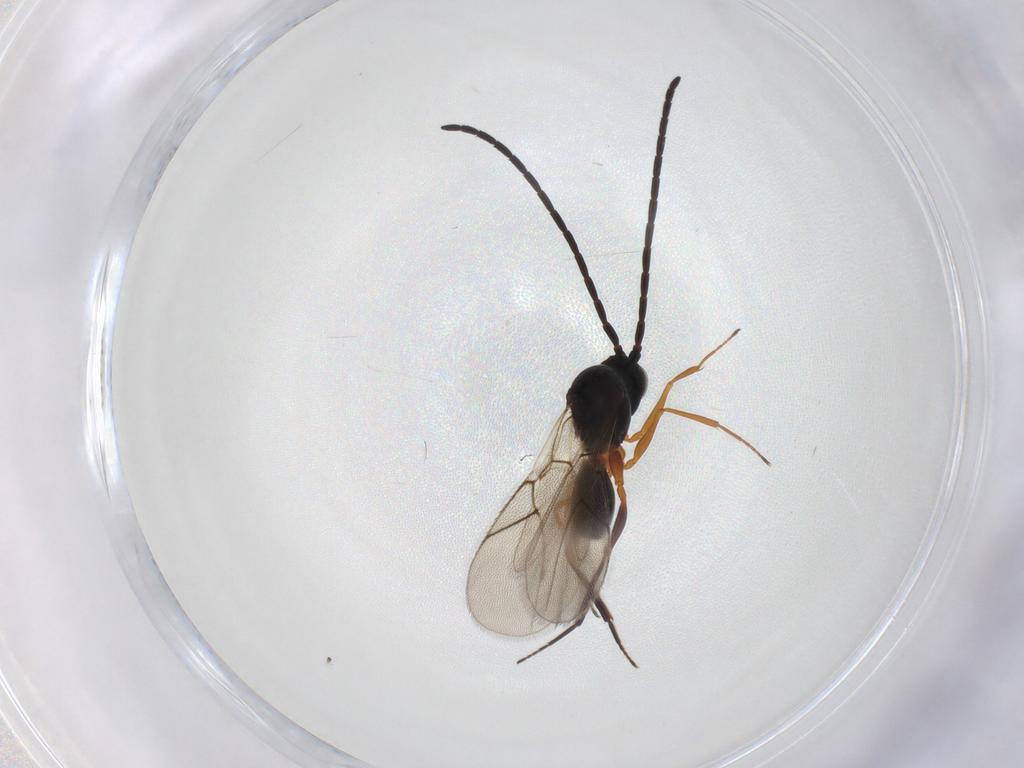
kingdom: Animalia
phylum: Arthropoda
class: Insecta
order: Hymenoptera
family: Figitidae
